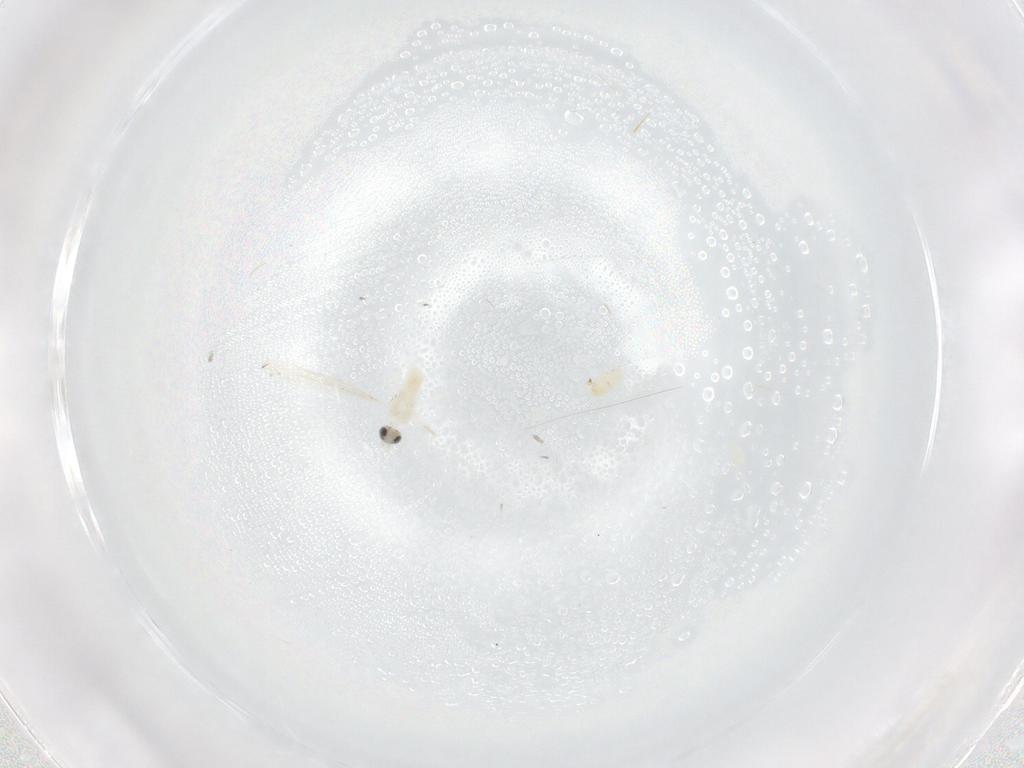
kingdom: Animalia
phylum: Arthropoda
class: Insecta
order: Diptera
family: Cecidomyiidae
